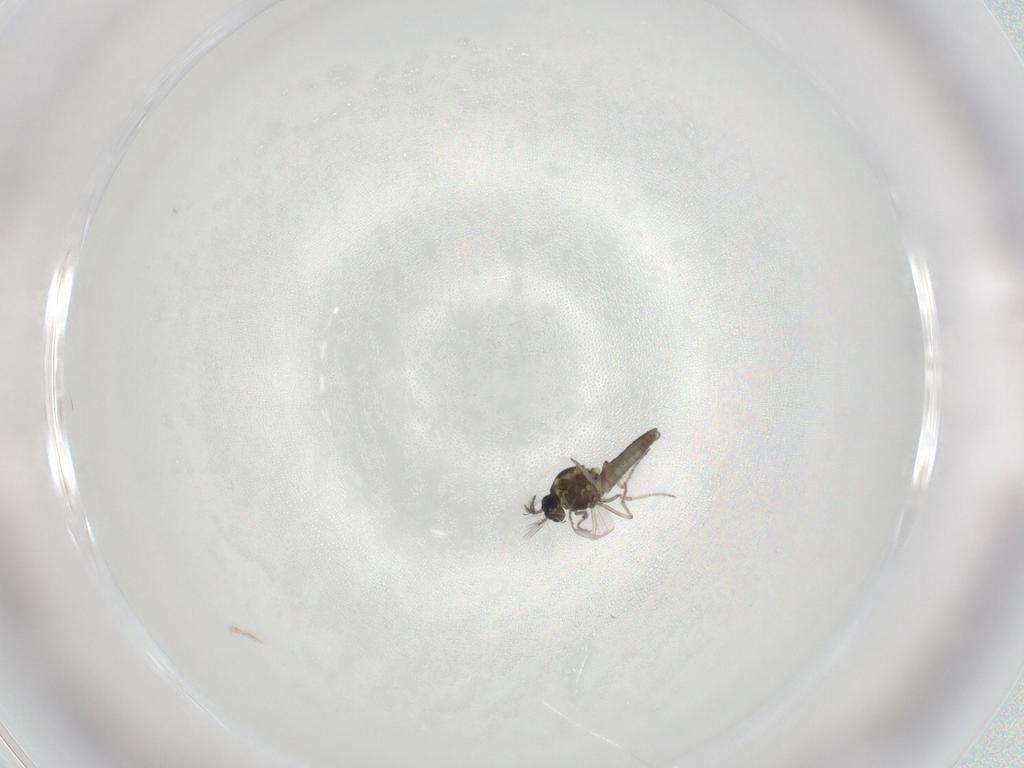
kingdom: Animalia
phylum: Arthropoda
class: Insecta
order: Diptera
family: Ceratopogonidae
